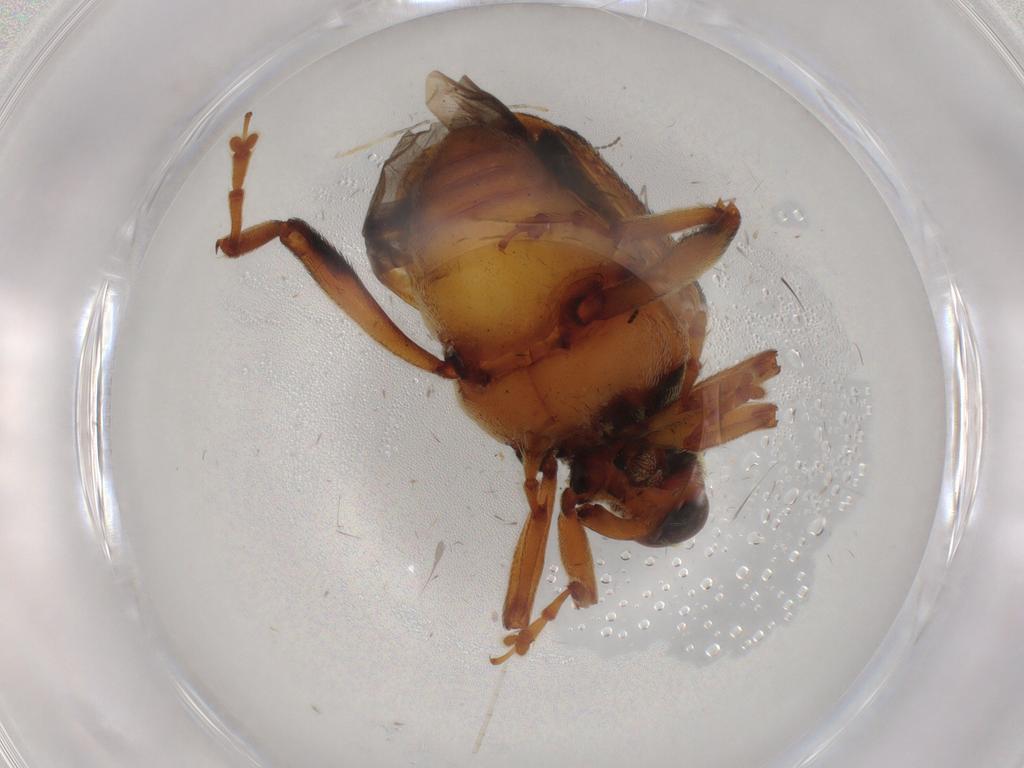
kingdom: Animalia
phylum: Arthropoda
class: Insecta
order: Coleoptera
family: Curculionidae
